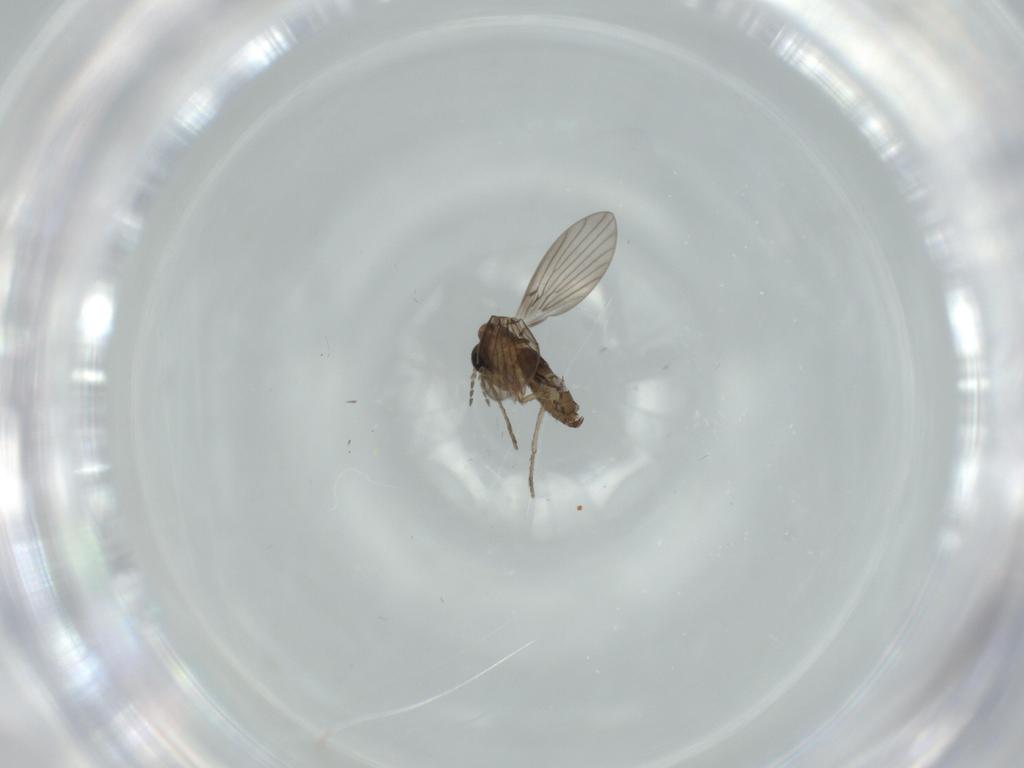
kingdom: Animalia
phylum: Arthropoda
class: Insecta
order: Diptera
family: Psychodidae
